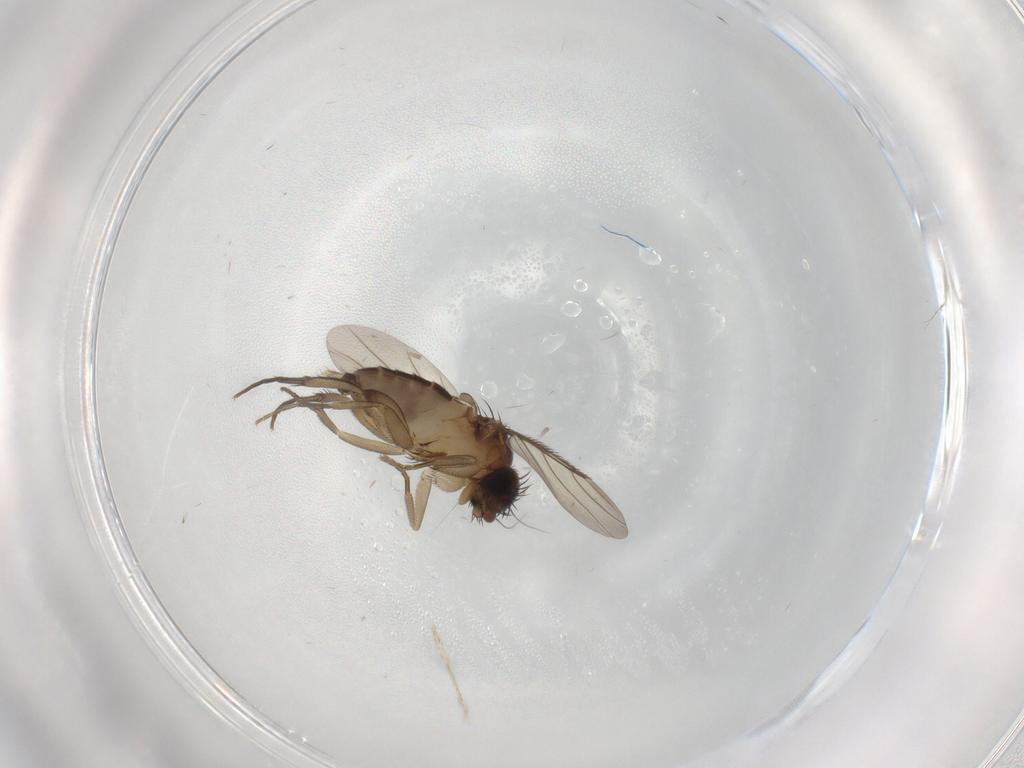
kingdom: Animalia
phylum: Arthropoda
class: Insecta
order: Diptera
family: Phoridae
